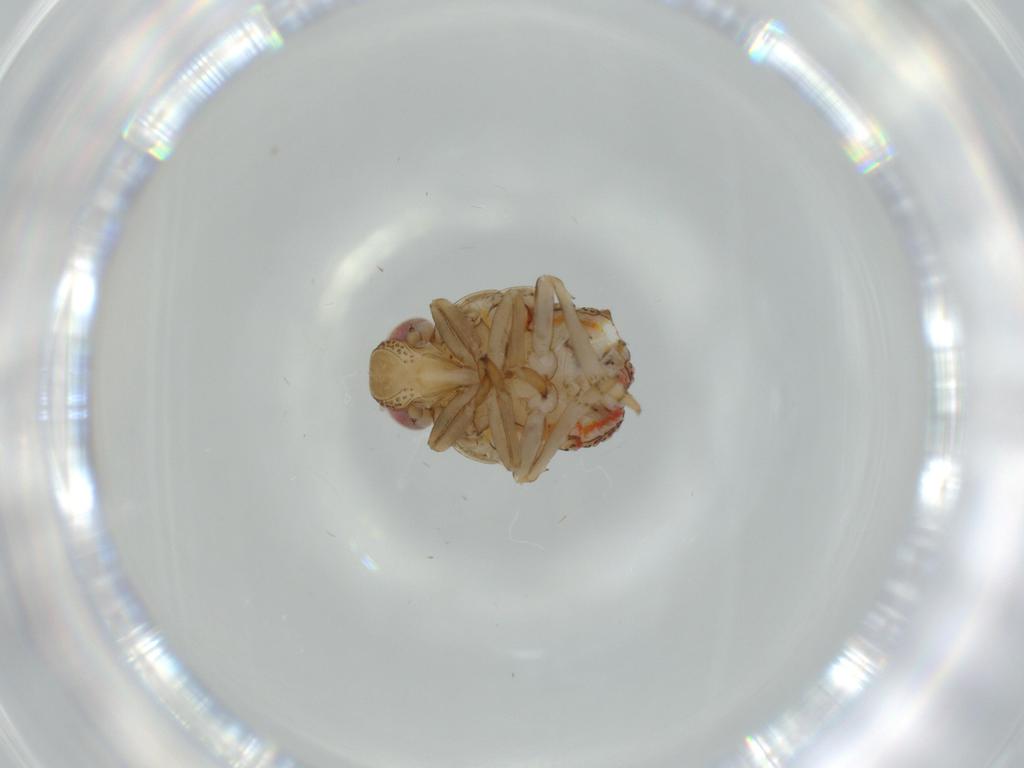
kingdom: Animalia
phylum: Arthropoda
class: Insecta
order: Hemiptera
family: Issidae
